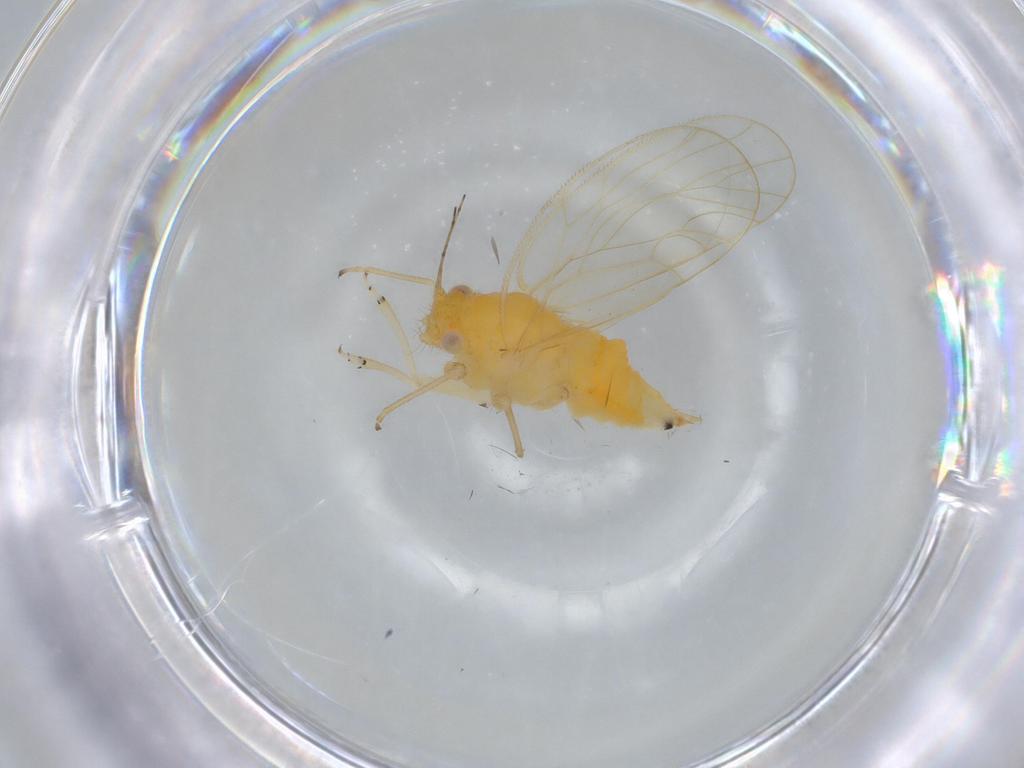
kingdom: Animalia
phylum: Arthropoda
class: Insecta
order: Hemiptera
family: Psyllidae
